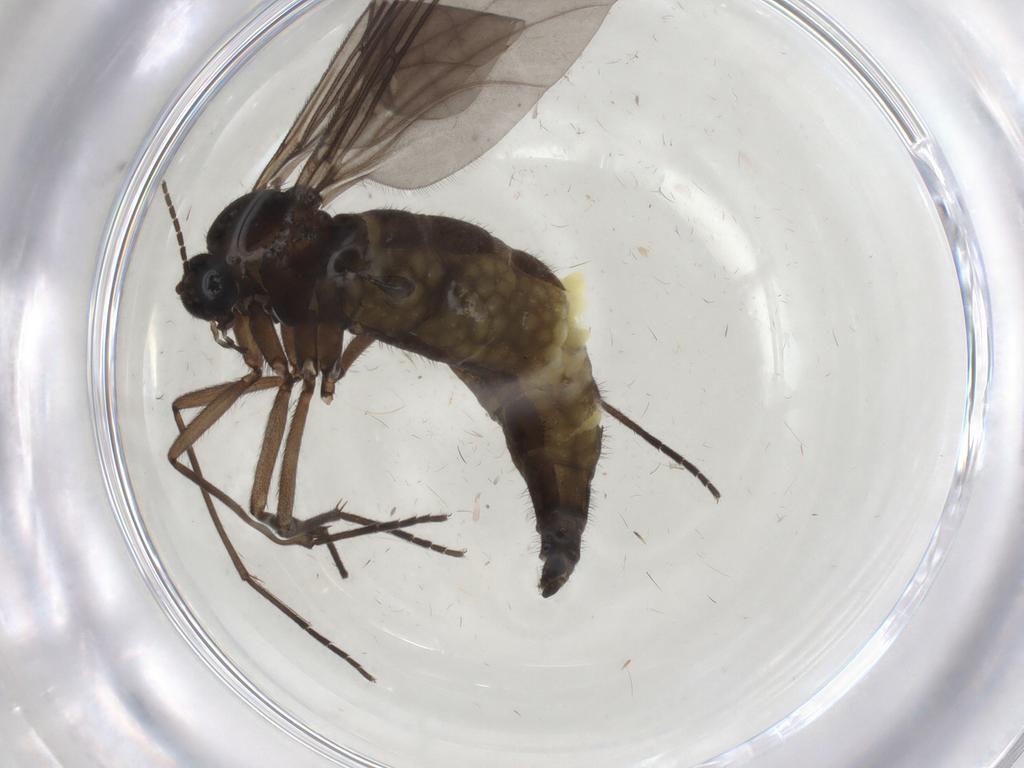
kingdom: Animalia
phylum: Arthropoda
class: Insecta
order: Diptera
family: Sciaridae
